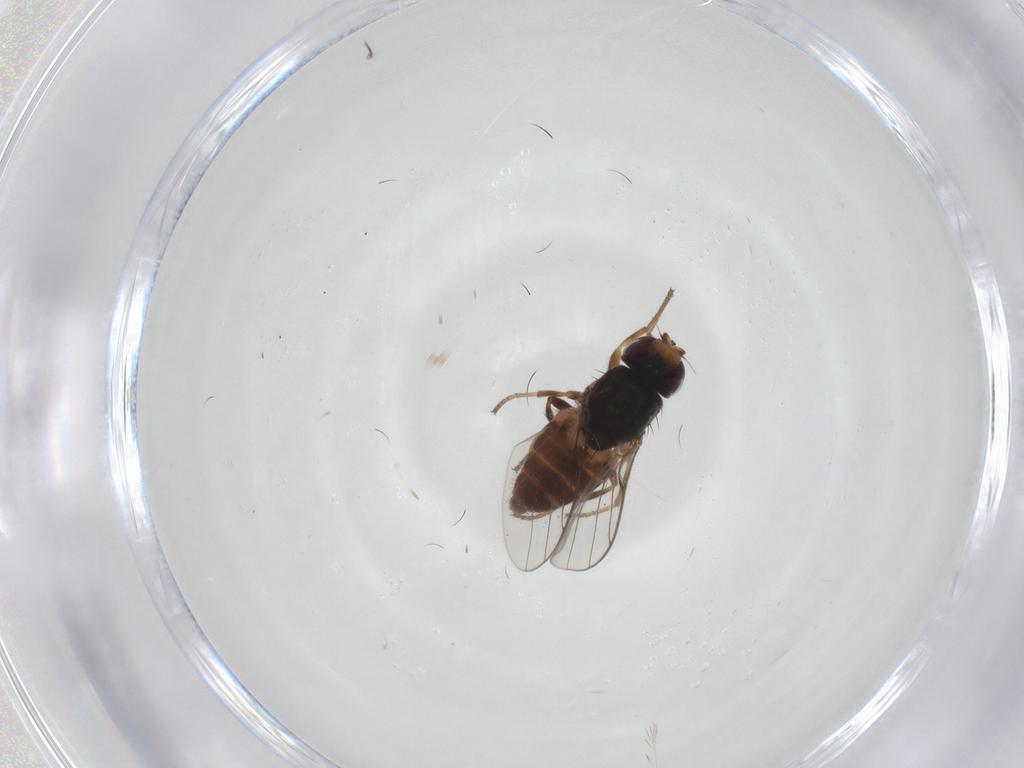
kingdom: Animalia
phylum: Arthropoda
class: Insecta
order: Diptera
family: Chloropidae
